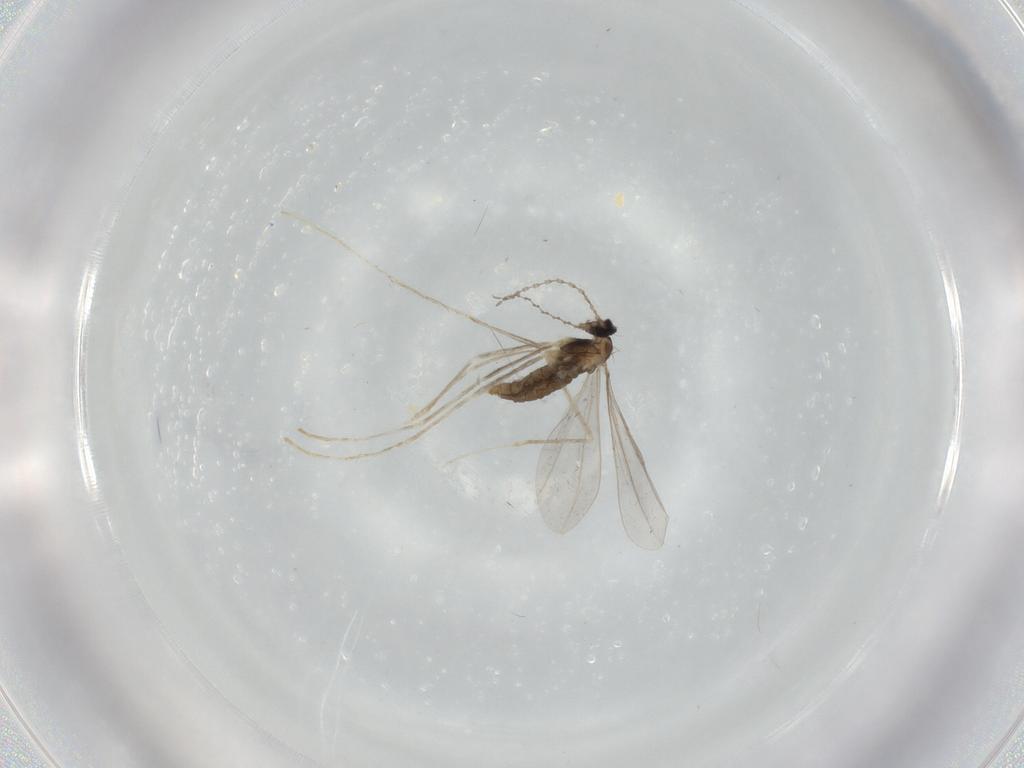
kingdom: Animalia
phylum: Arthropoda
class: Insecta
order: Diptera
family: Cecidomyiidae
